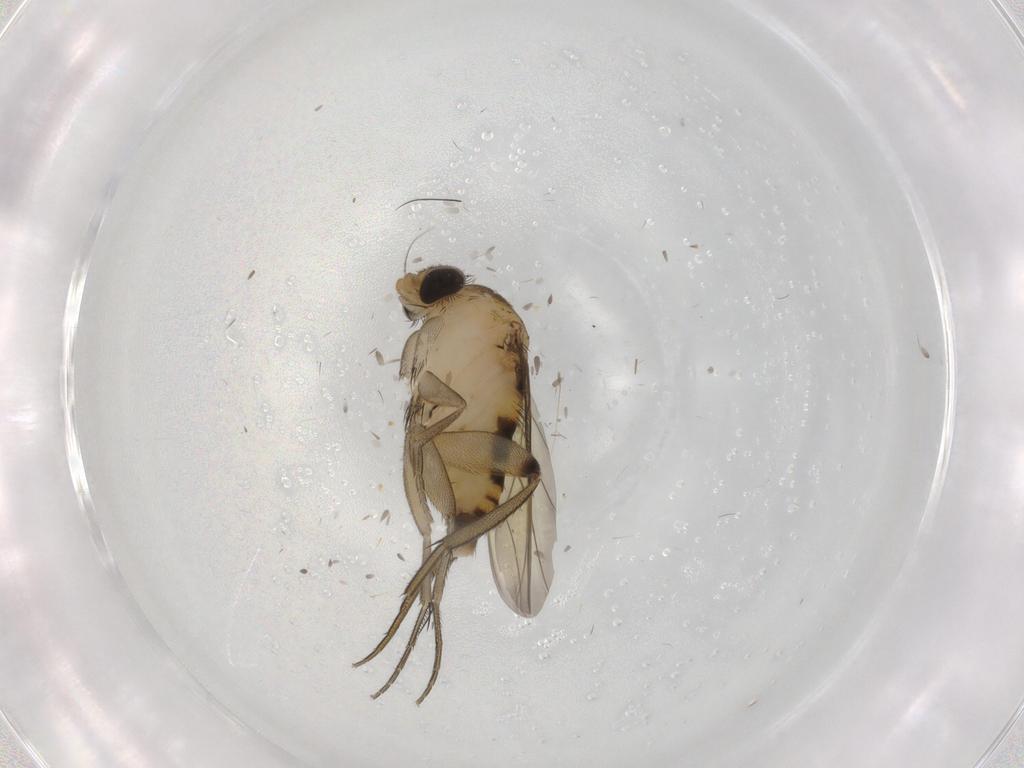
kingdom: Animalia
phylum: Arthropoda
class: Insecta
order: Diptera
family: Phoridae
